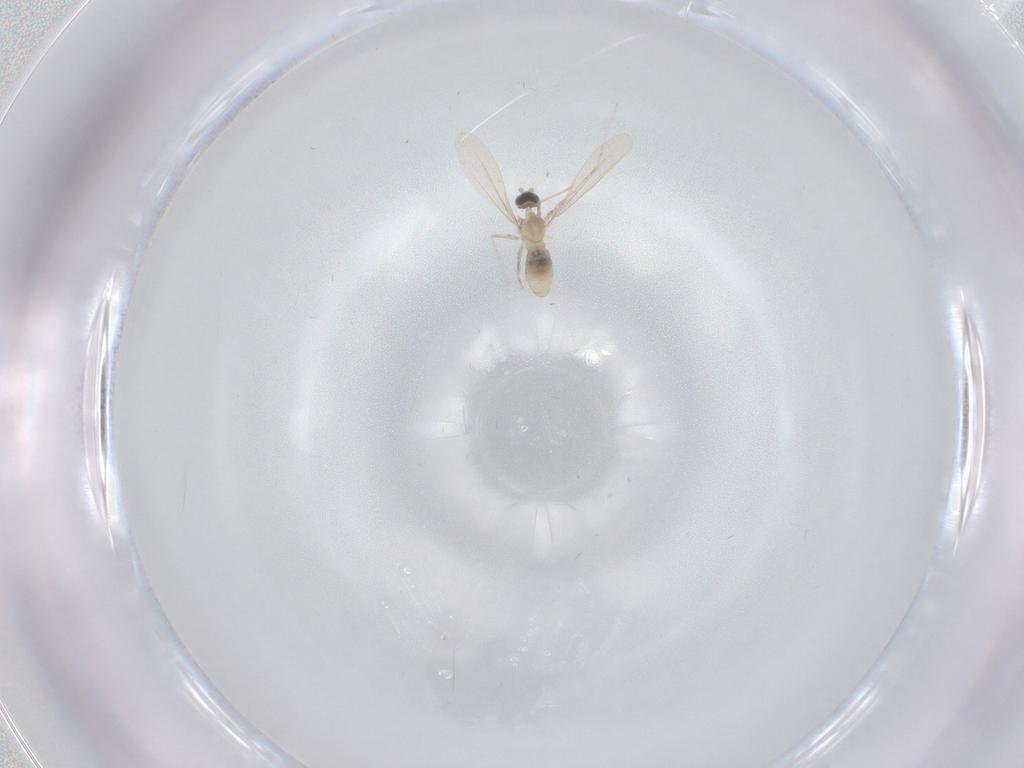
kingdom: Animalia
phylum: Arthropoda
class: Insecta
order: Diptera
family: Cecidomyiidae
